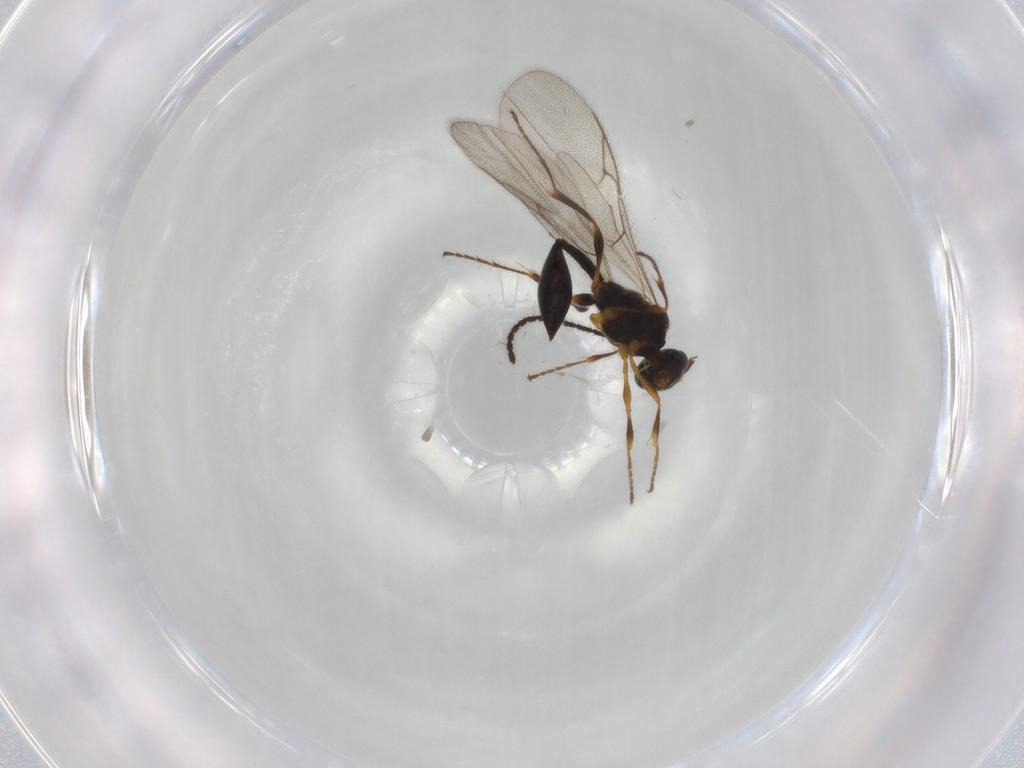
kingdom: Animalia
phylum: Arthropoda
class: Insecta
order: Hymenoptera
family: Diapriidae
